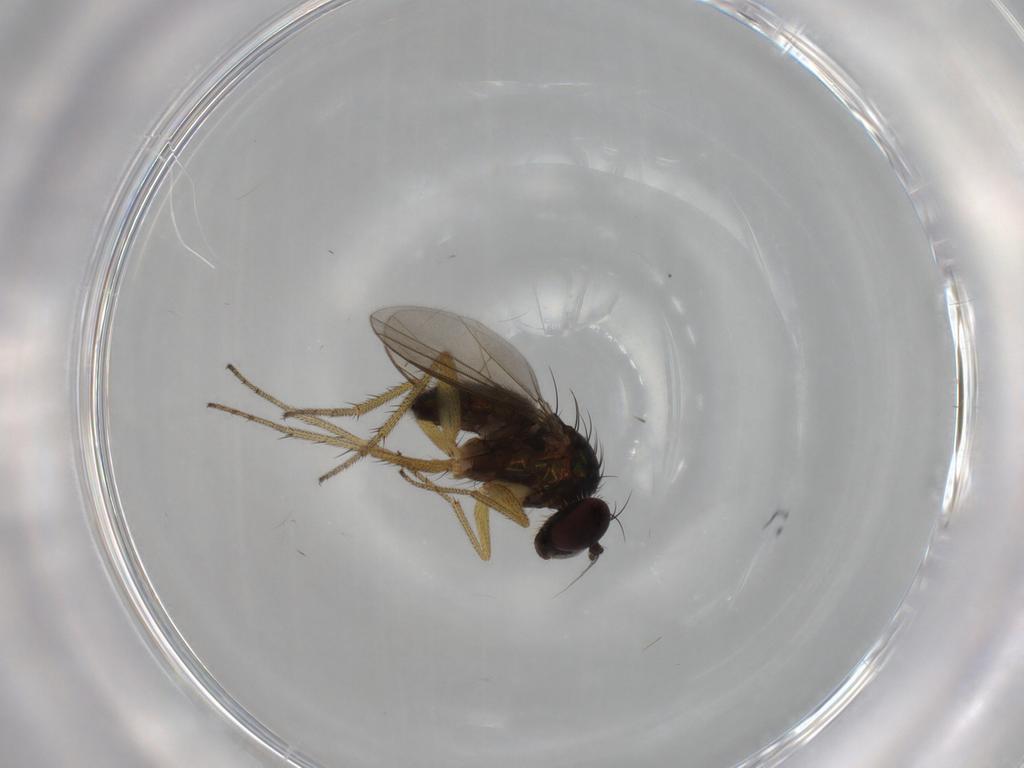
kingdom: Animalia
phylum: Arthropoda
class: Insecta
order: Diptera
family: Dolichopodidae
